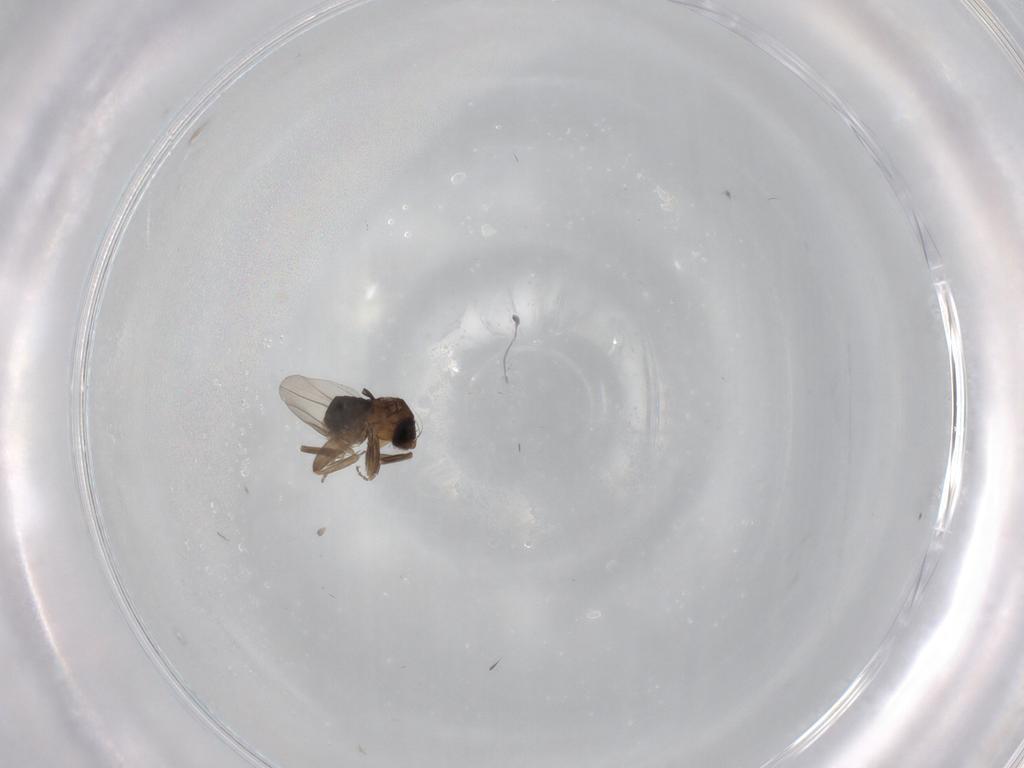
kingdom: Animalia
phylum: Arthropoda
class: Insecta
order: Diptera
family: Phoridae
